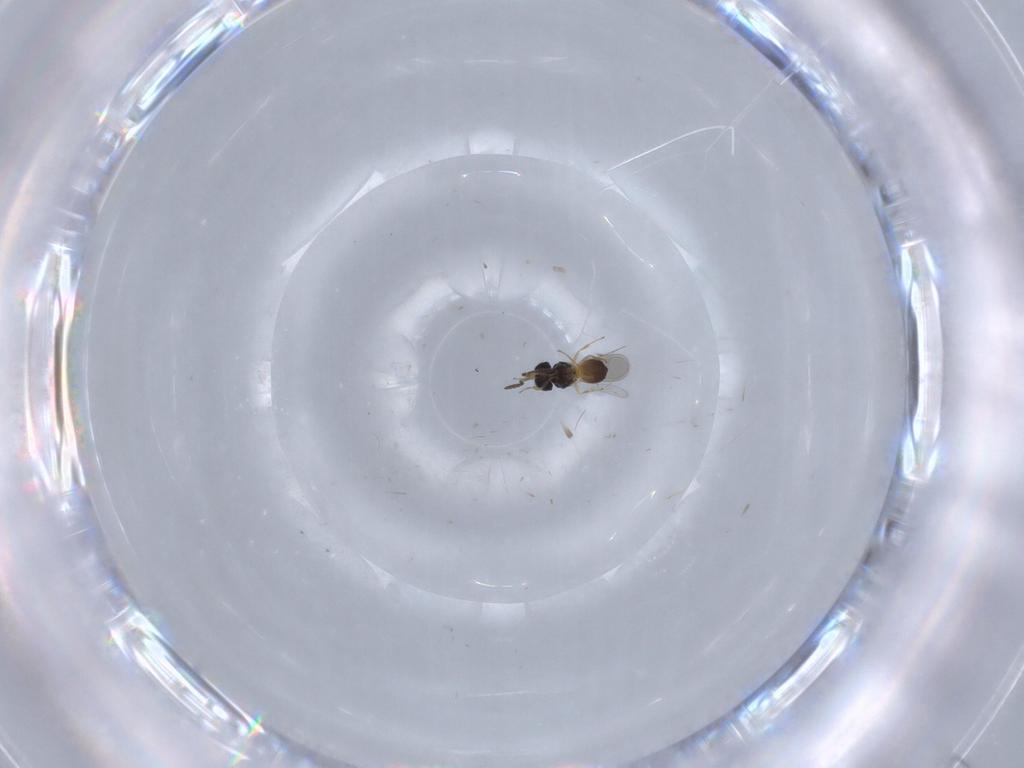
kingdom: Animalia
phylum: Arthropoda
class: Insecta
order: Hymenoptera
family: Scelionidae
